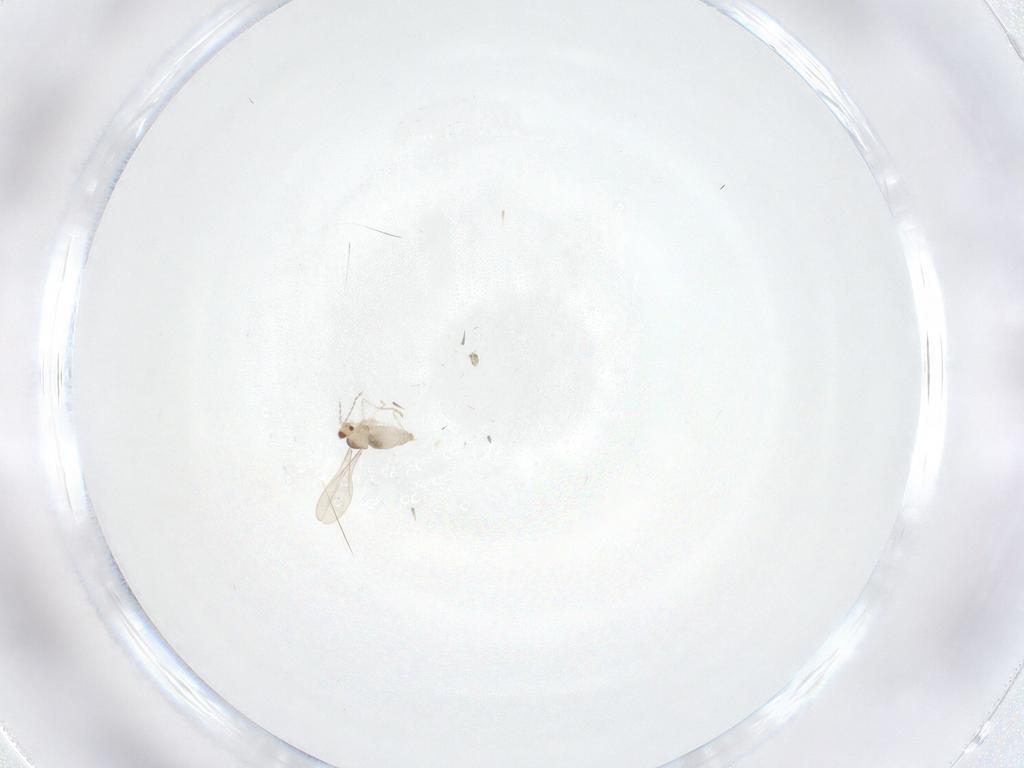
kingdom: Animalia
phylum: Arthropoda
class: Insecta
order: Diptera
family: Cecidomyiidae
